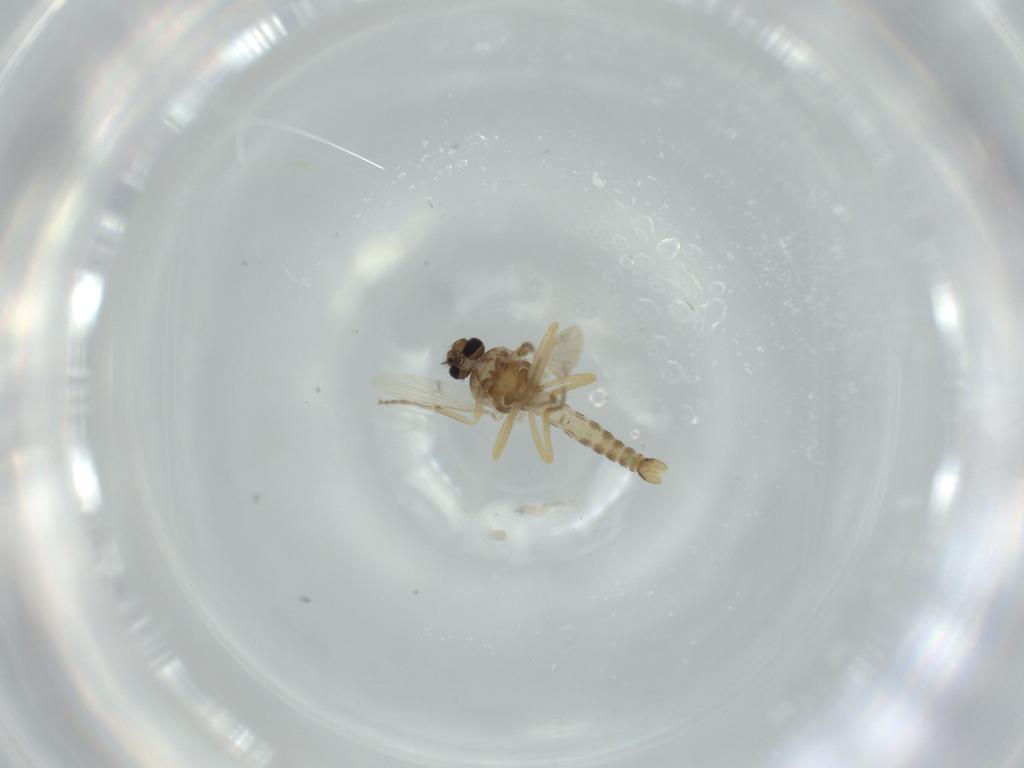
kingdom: Animalia
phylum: Arthropoda
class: Insecta
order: Diptera
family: Ceratopogonidae
